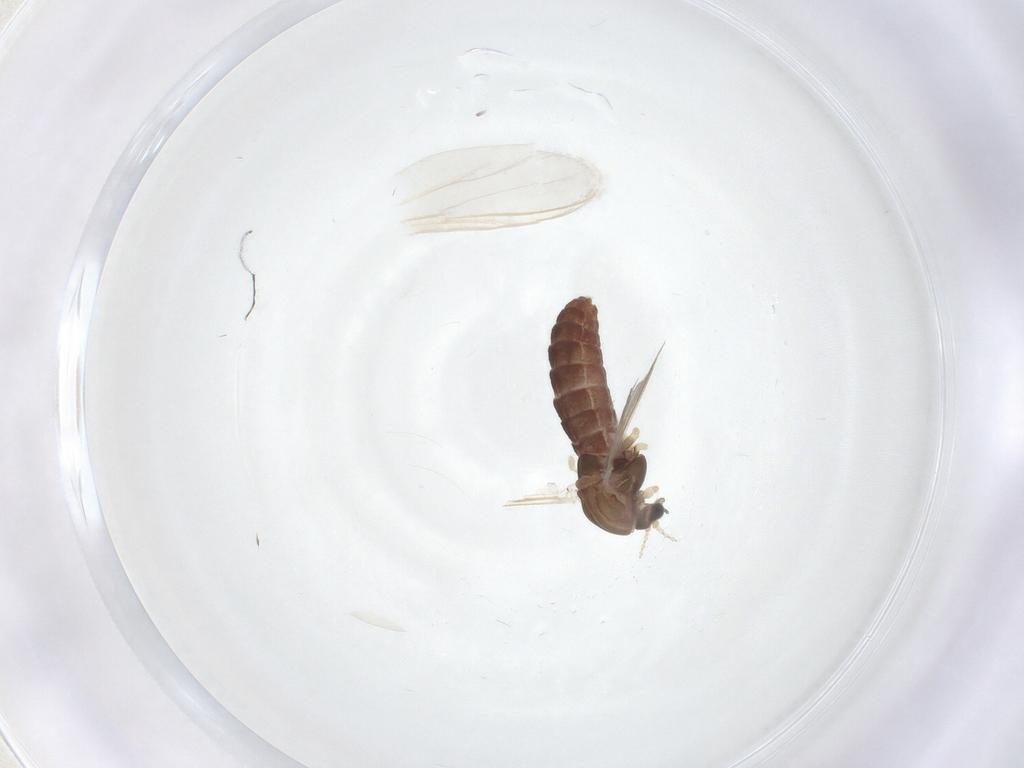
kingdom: Animalia
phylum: Arthropoda
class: Insecta
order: Diptera
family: Chironomidae
